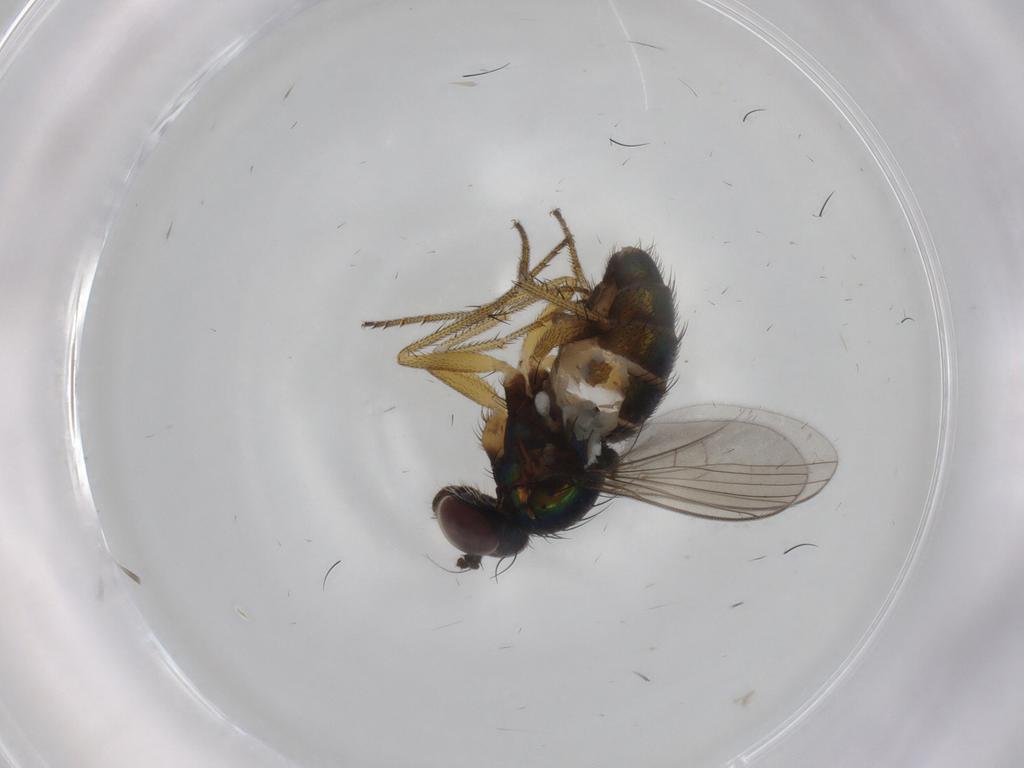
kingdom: Animalia
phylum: Arthropoda
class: Insecta
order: Diptera
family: Dolichopodidae
